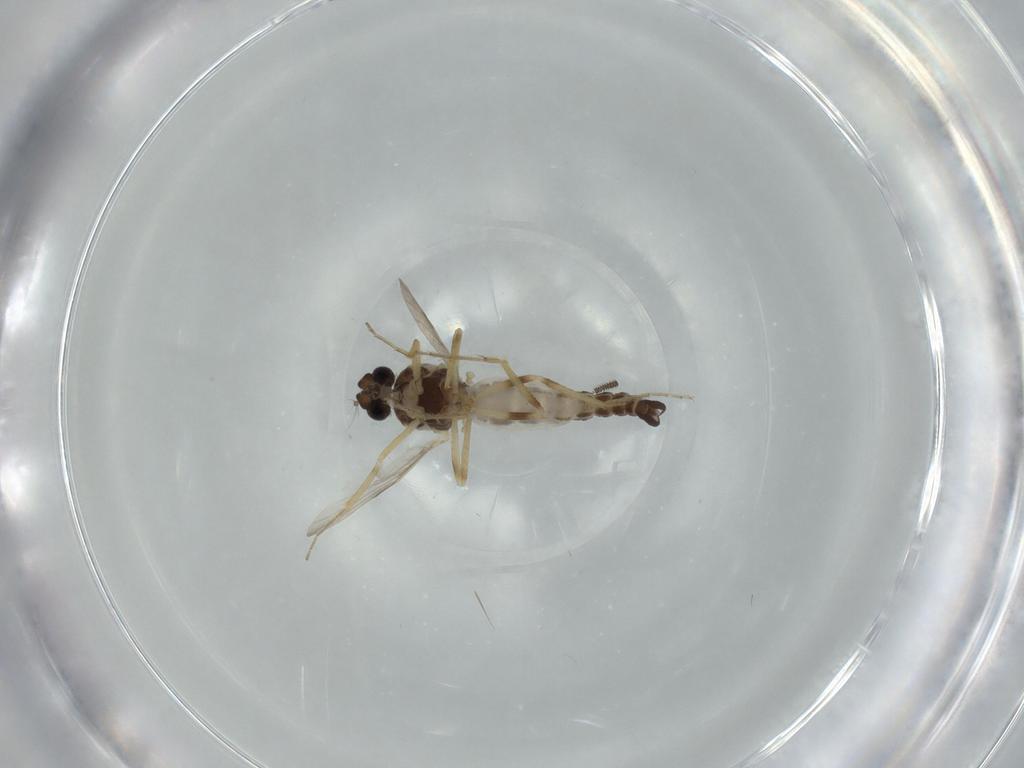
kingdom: Animalia
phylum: Arthropoda
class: Insecta
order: Diptera
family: Ceratopogonidae
